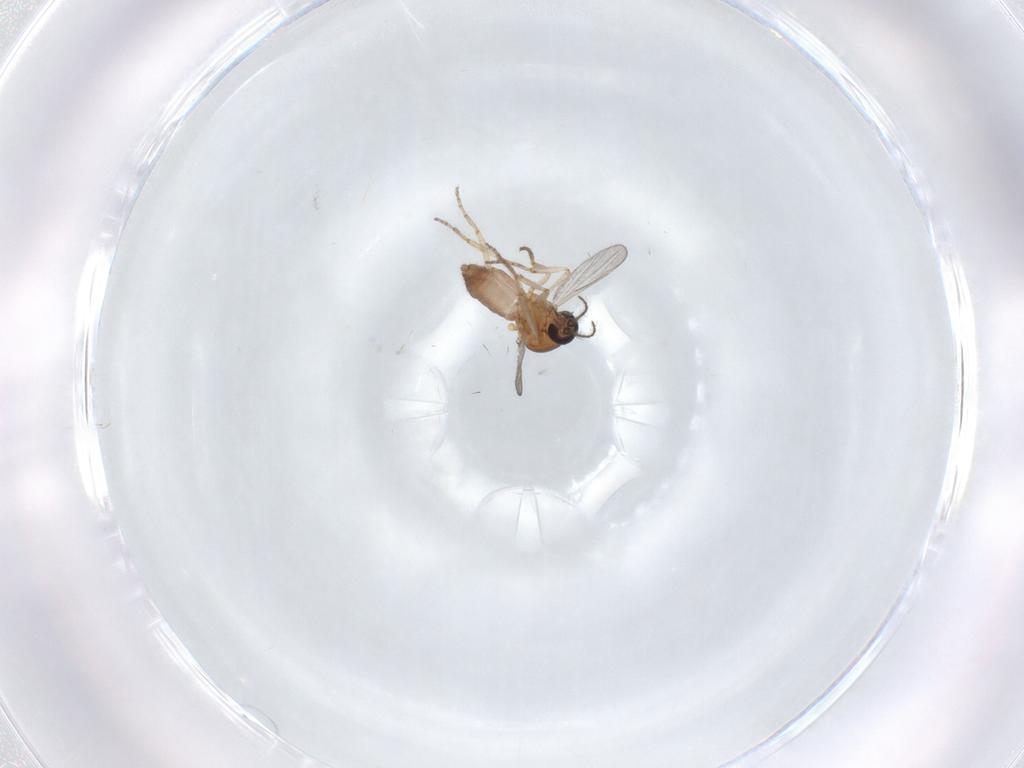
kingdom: Animalia
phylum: Arthropoda
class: Insecta
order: Diptera
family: Ceratopogonidae
